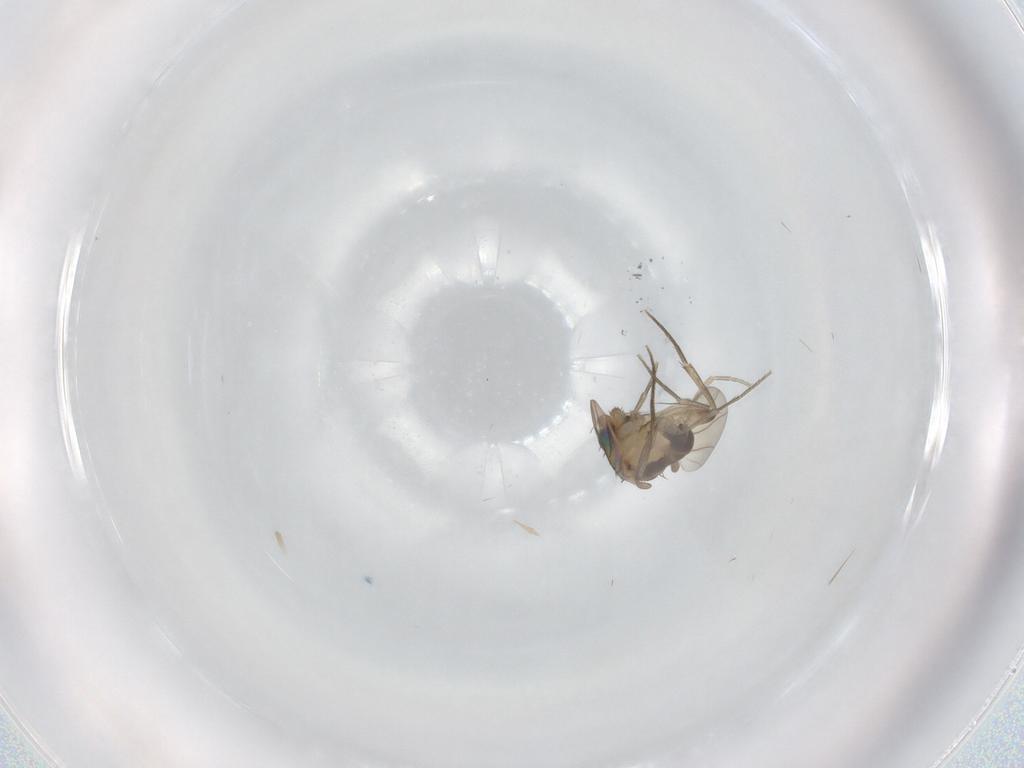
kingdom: Animalia
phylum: Arthropoda
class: Insecta
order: Diptera
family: Phoridae
